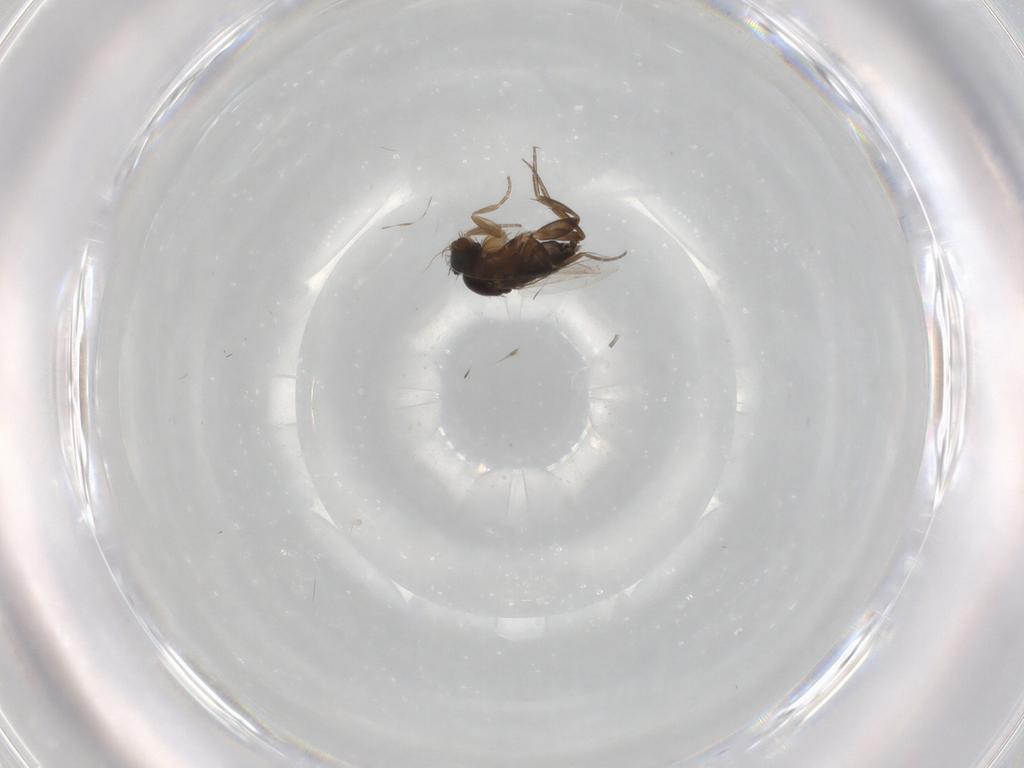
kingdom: Animalia
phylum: Arthropoda
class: Insecta
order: Diptera
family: Phoridae
